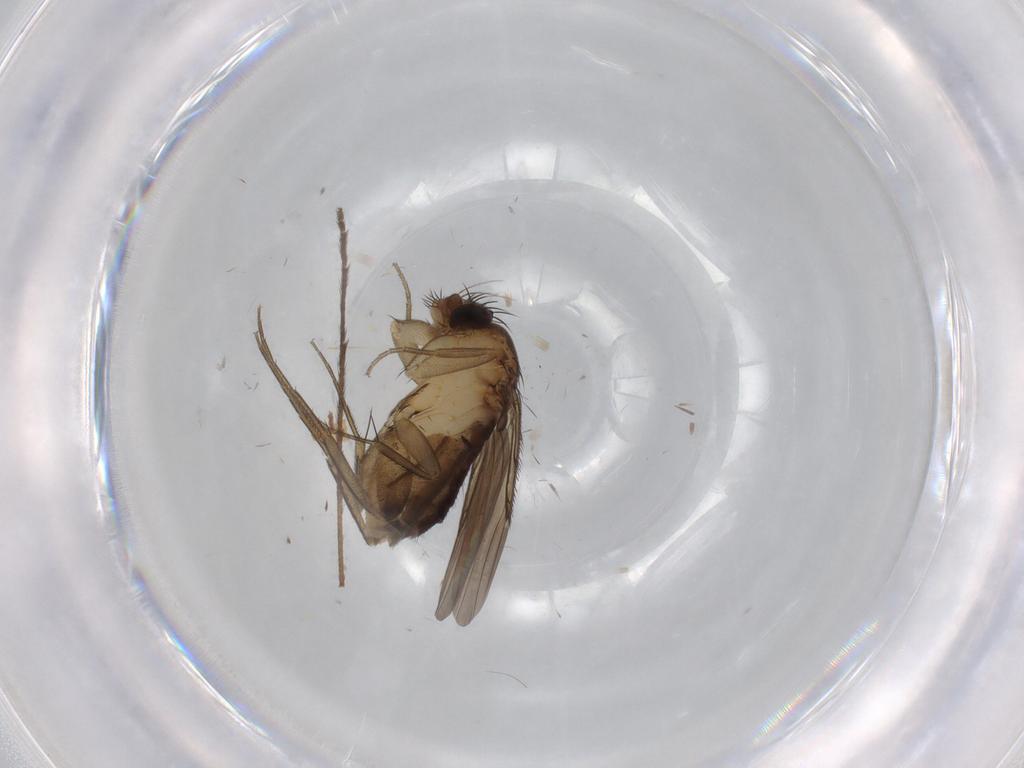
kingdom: Animalia
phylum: Arthropoda
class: Insecta
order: Diptera
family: Phoridae
